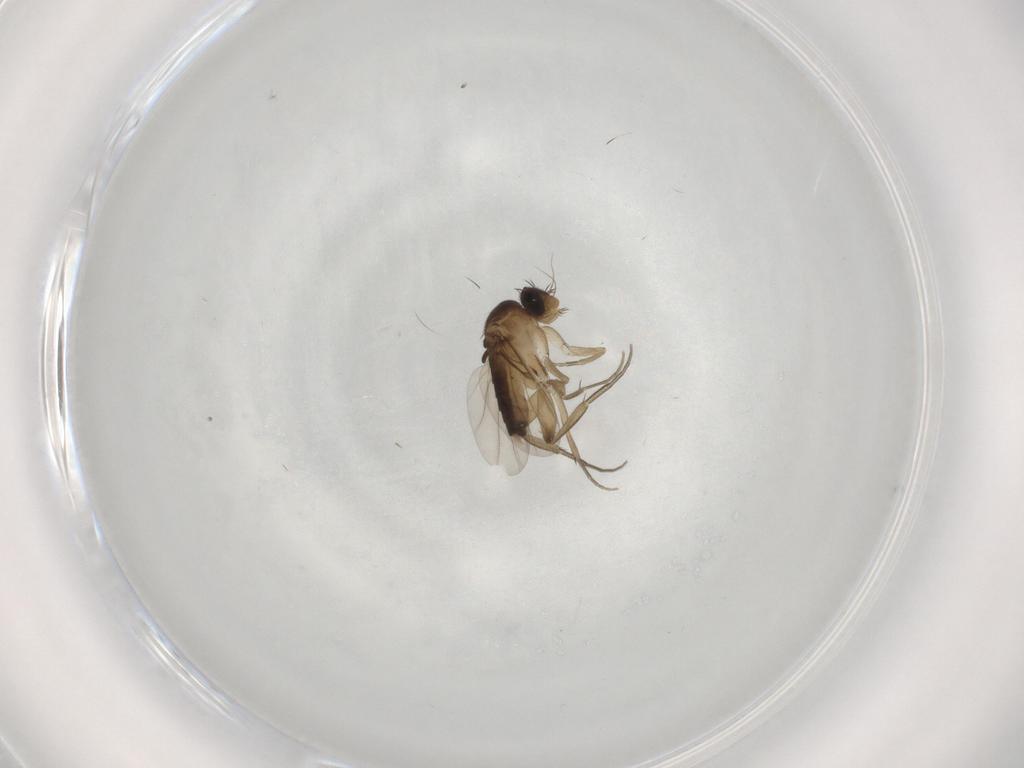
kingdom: Animalia
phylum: Arthropoda
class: Insecta
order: Diptera
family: Phoridae
